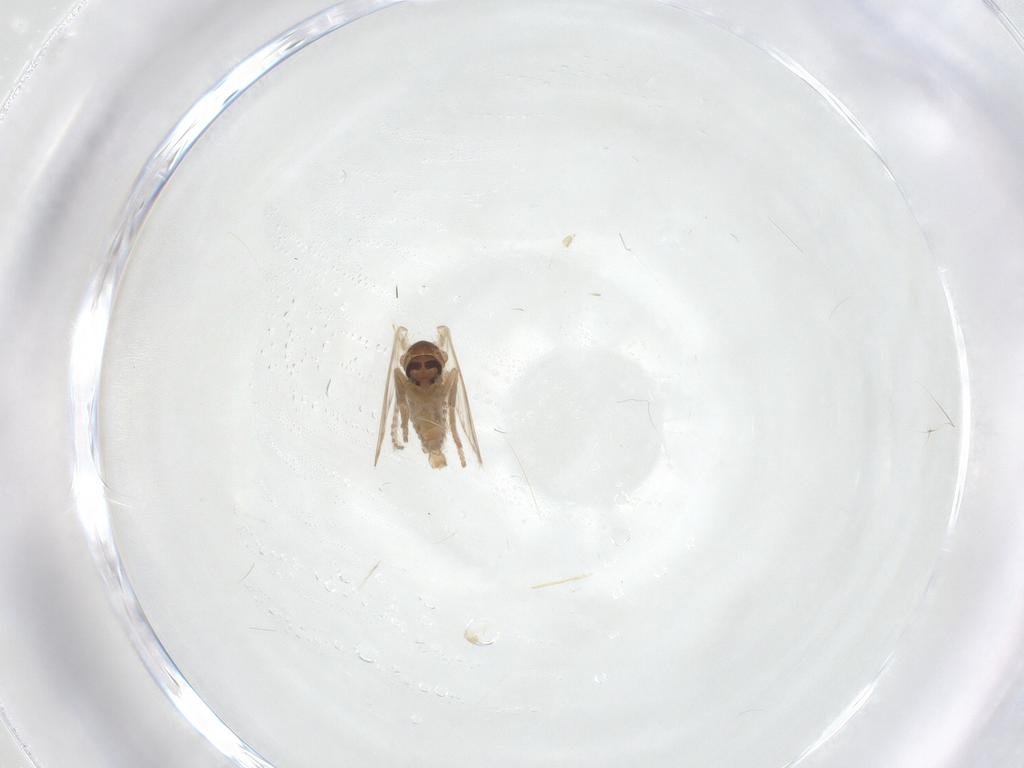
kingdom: Animalia
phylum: Arthropoda
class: Insecta
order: Diptera
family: Psychodidae
